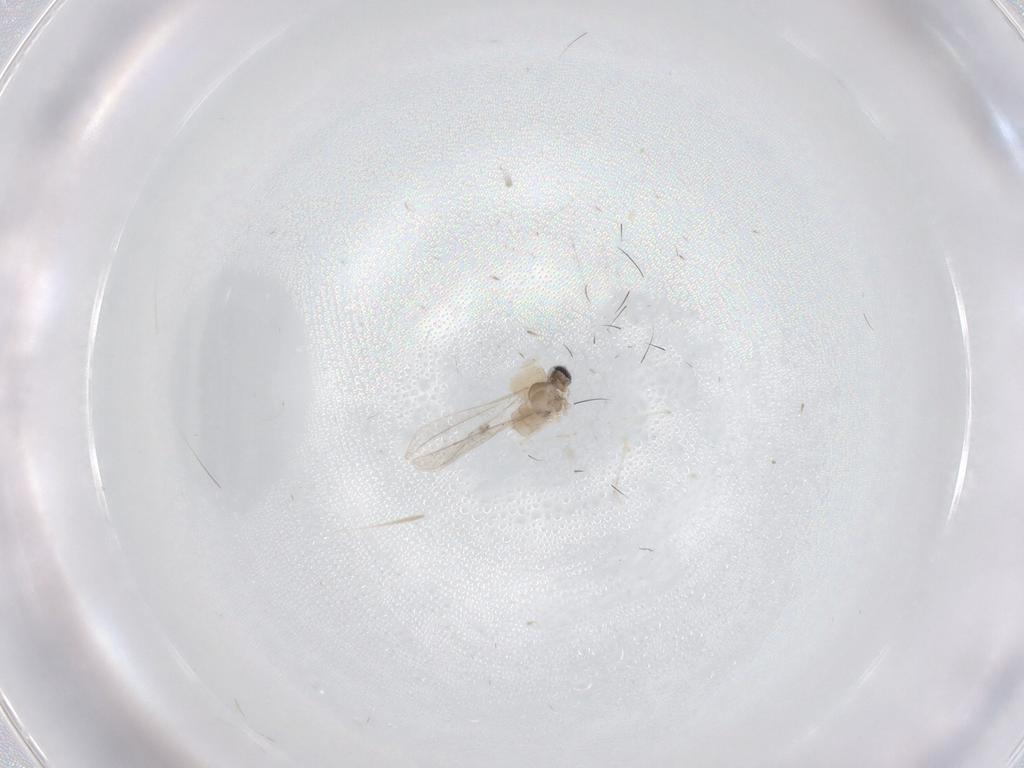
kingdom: Animalia
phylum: Arthropoda
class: Insecta
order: Diptera
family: Cecidomyiidae
